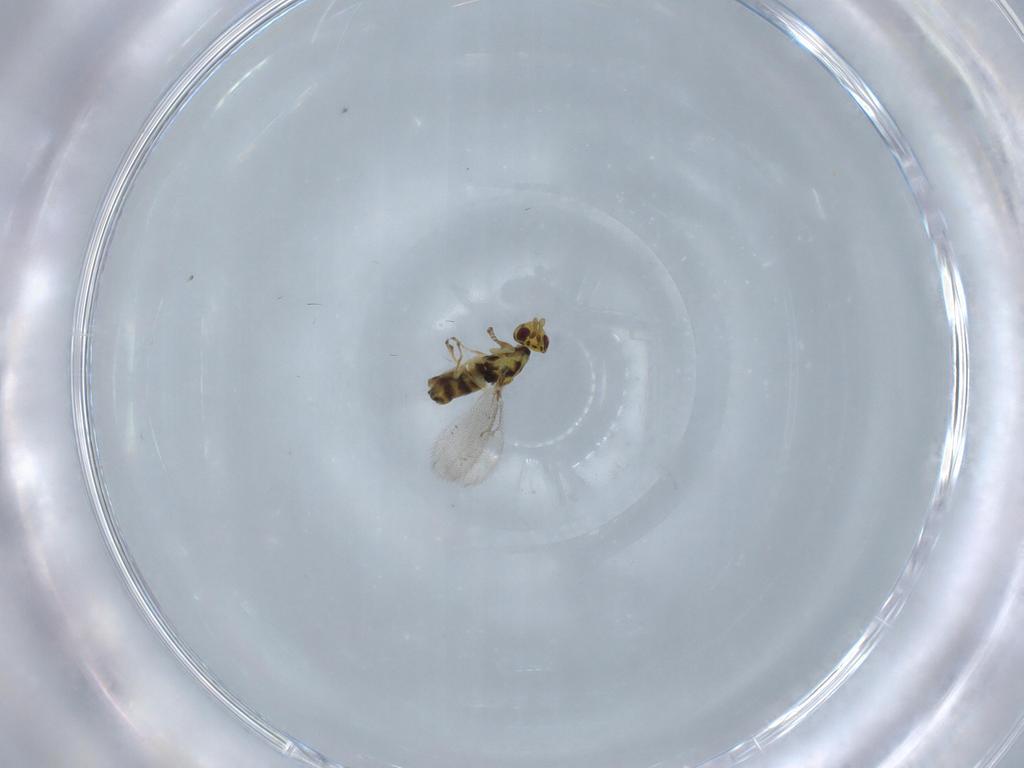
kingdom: Animalia
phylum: Arthropoda
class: Insecta
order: Hymenoptera
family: Eulophidae
